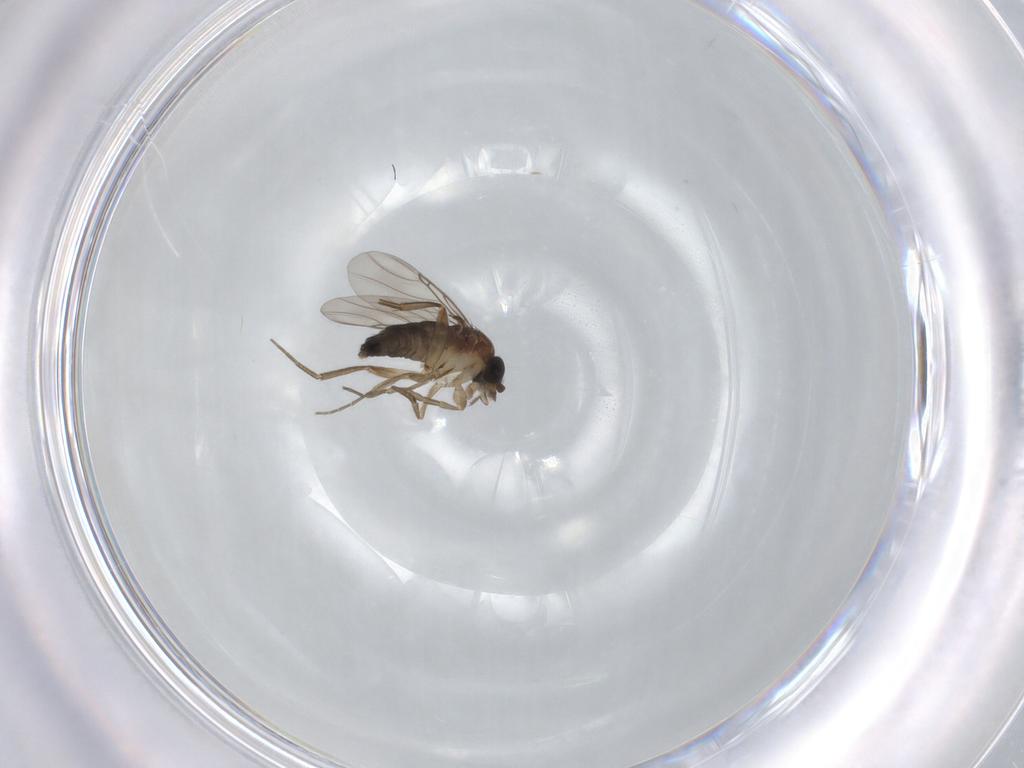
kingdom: Animalia
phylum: Arthropoda
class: Insecta
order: Diptera
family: Phoridae
